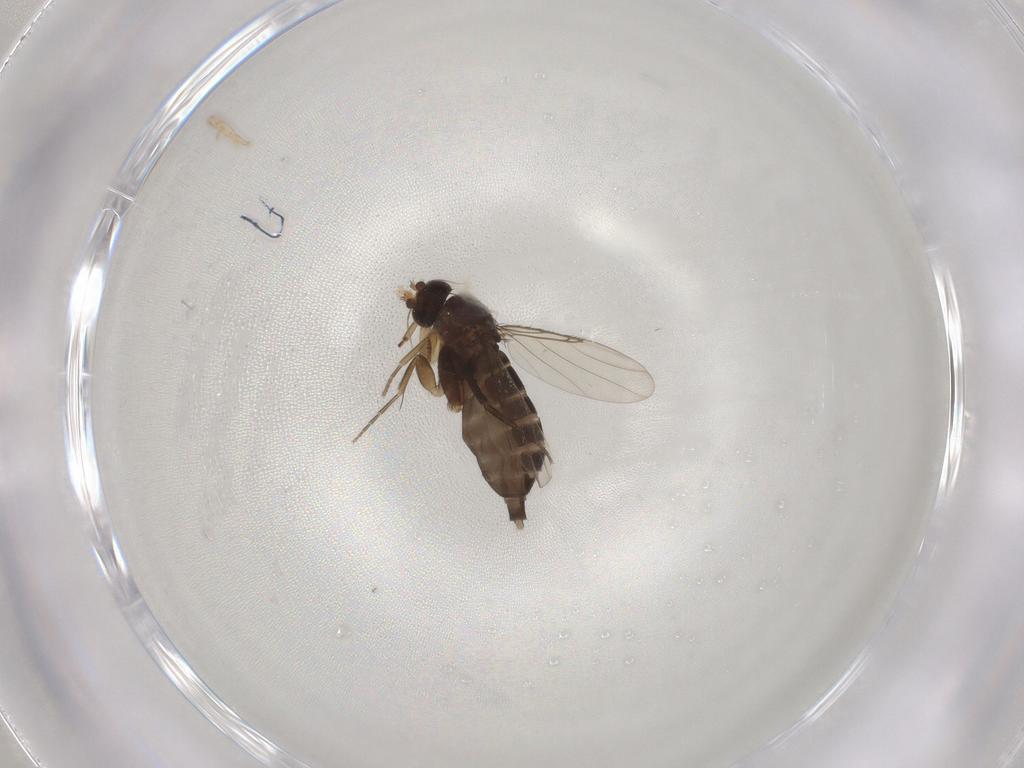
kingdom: Animalia
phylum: Arthropoda
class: Insecta
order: Diptera
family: Phoridae
